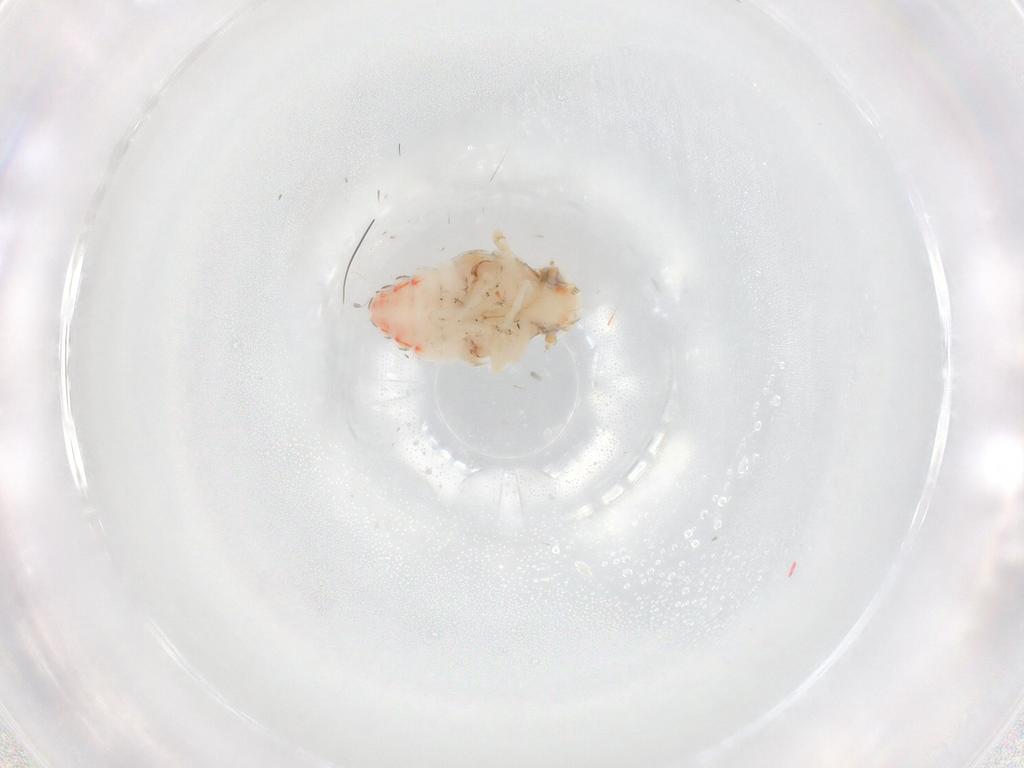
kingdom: Animalia
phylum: Arthropoda
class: Insecta
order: Hemiptera
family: Nogodinidae
